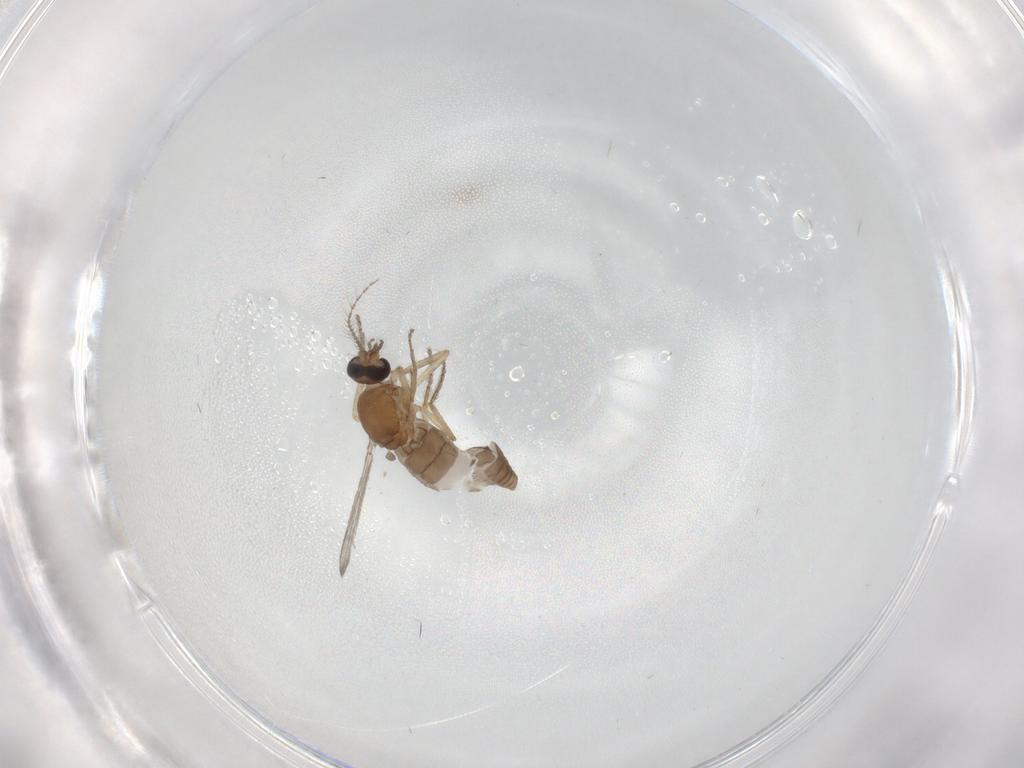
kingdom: Animalia
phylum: Arthropoda
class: Insecta
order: Diptera
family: Ceratopogonidae
